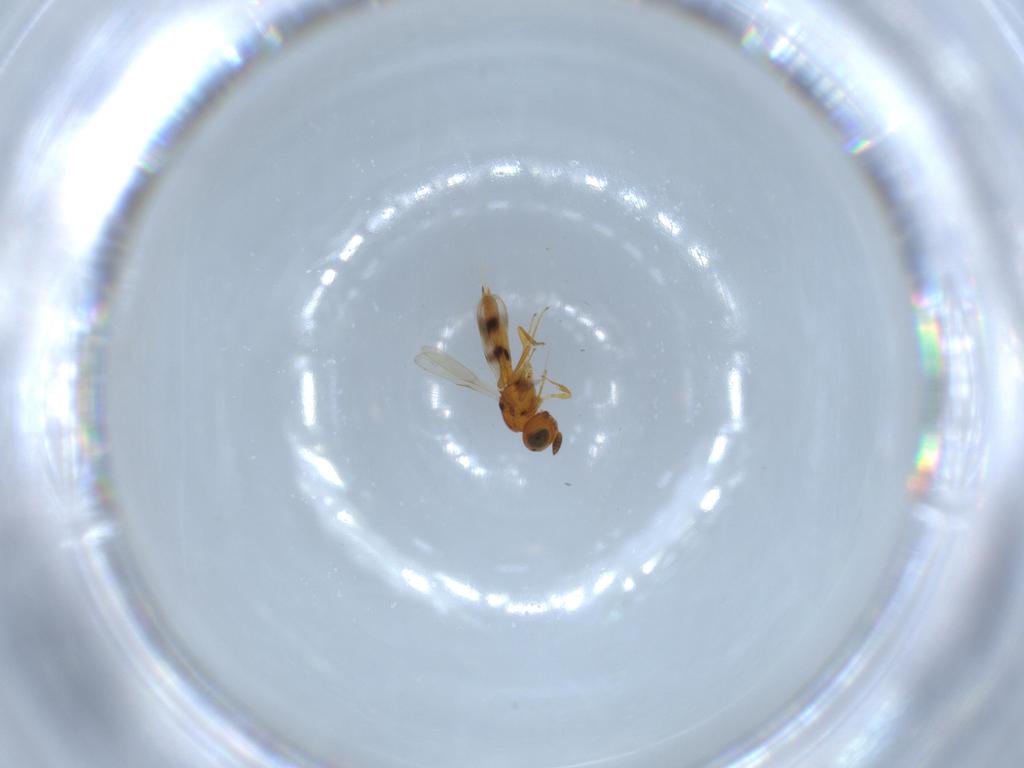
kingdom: Animalia
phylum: Arthropoda
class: Insecta
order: Hymenoptera
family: Scelionidae
